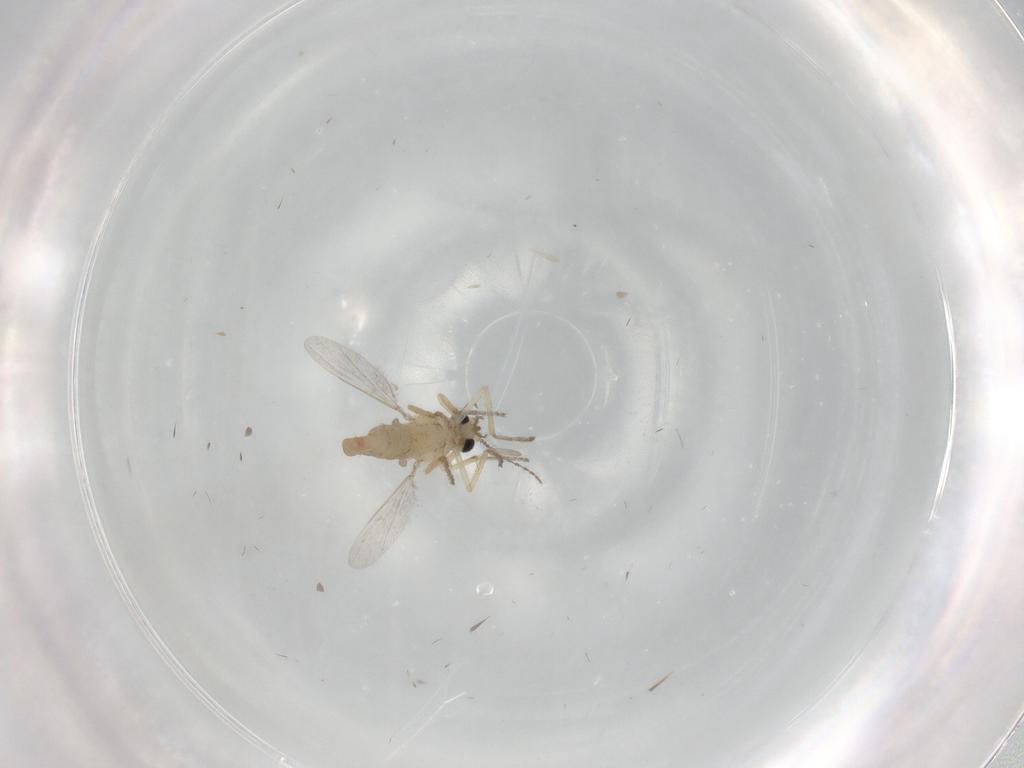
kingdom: Animalia
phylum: Arthropoda
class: Insecta
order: Diptera
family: Ceratopogonidae
